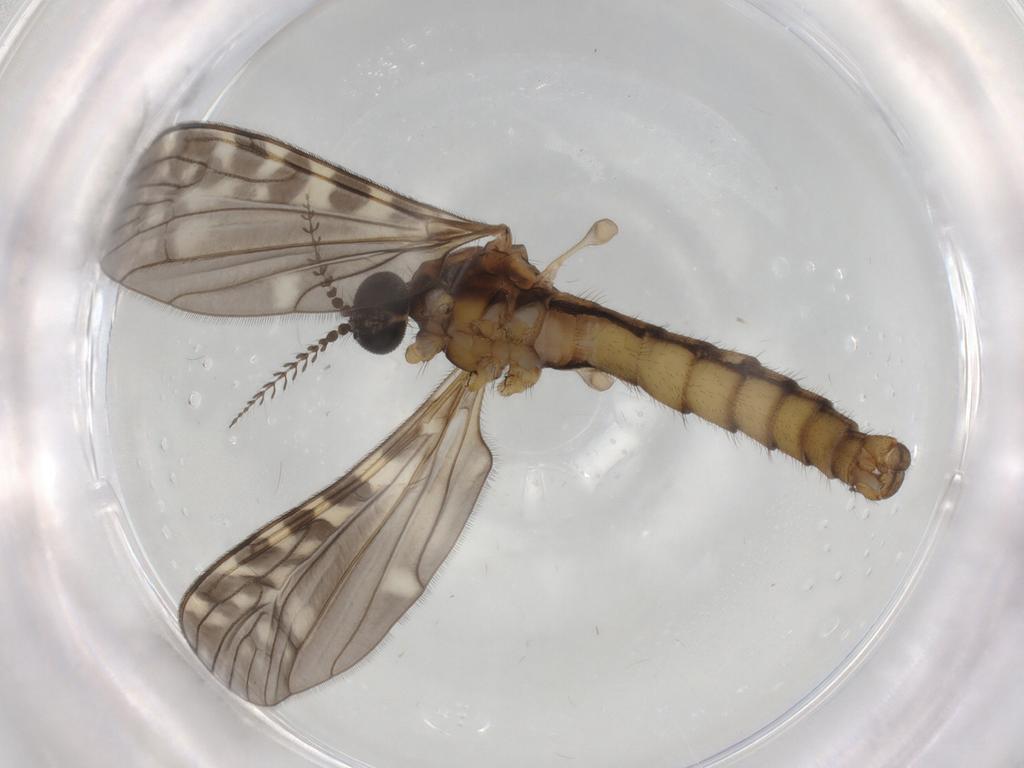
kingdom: Animalia
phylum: Arthropoda
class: Insecta
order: Diptera
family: Ceratopogonidae
